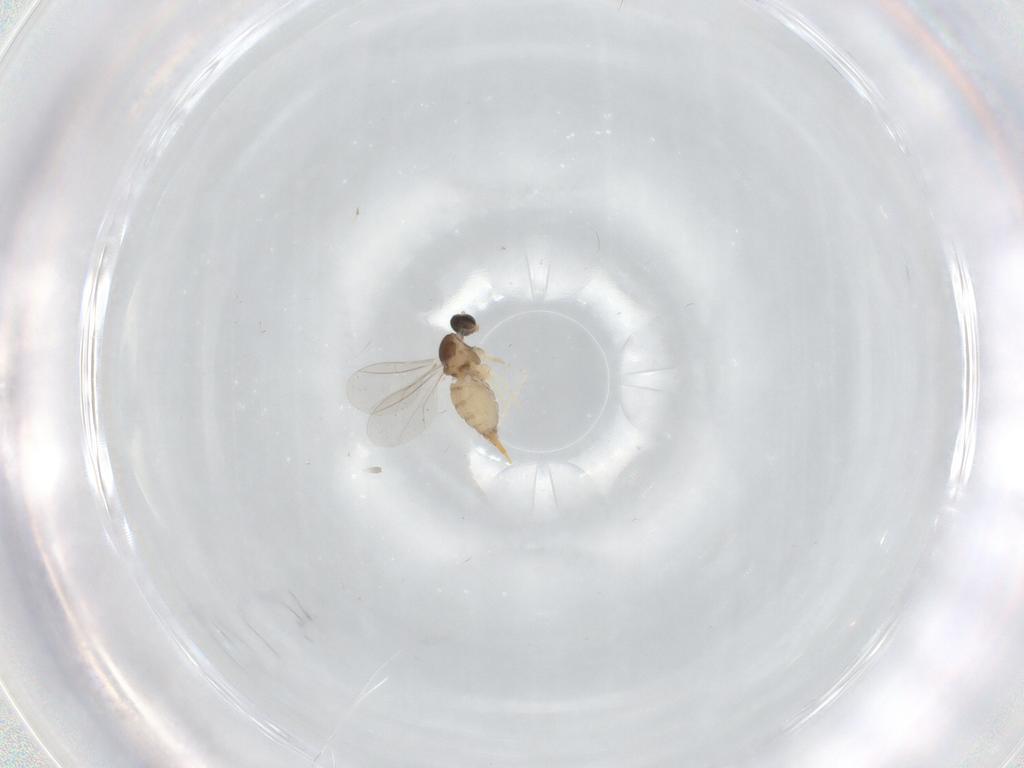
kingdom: Animalia
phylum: Arthropoda
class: Insecta
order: Diptera
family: Cecidomyiidae
